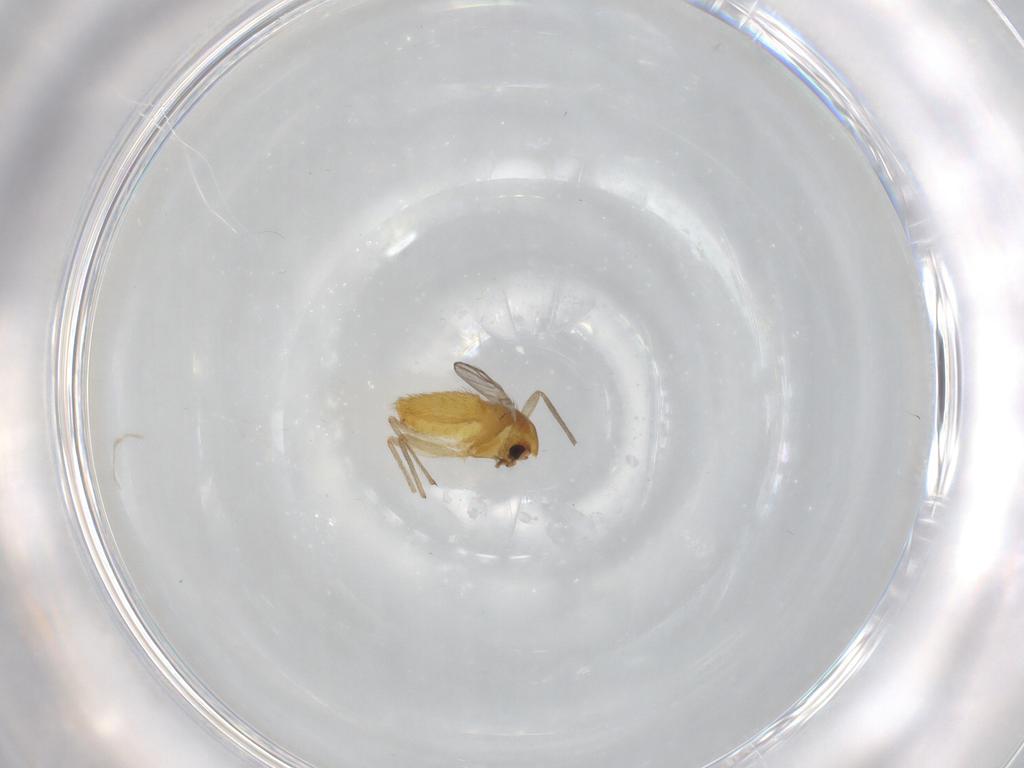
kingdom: Animalia
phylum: Arthropoda
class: Insecta
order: Diptera
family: Chironomidae
